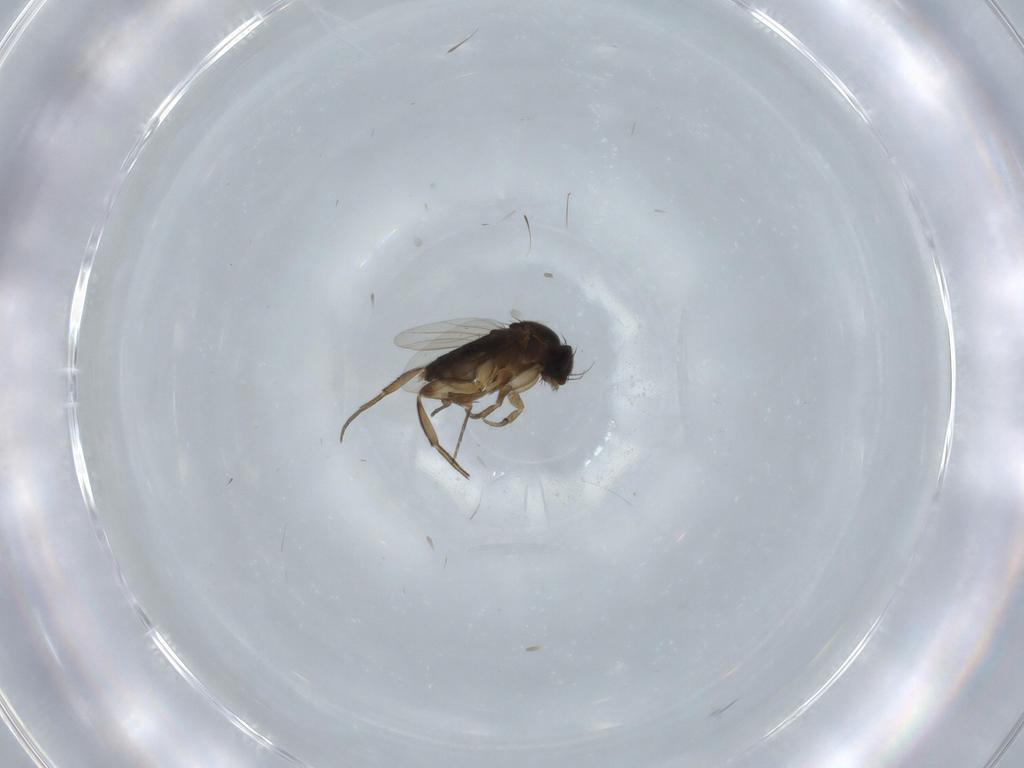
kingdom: Animalia
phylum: Arthropoda
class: Insecta
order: Diptera
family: Phoridae
